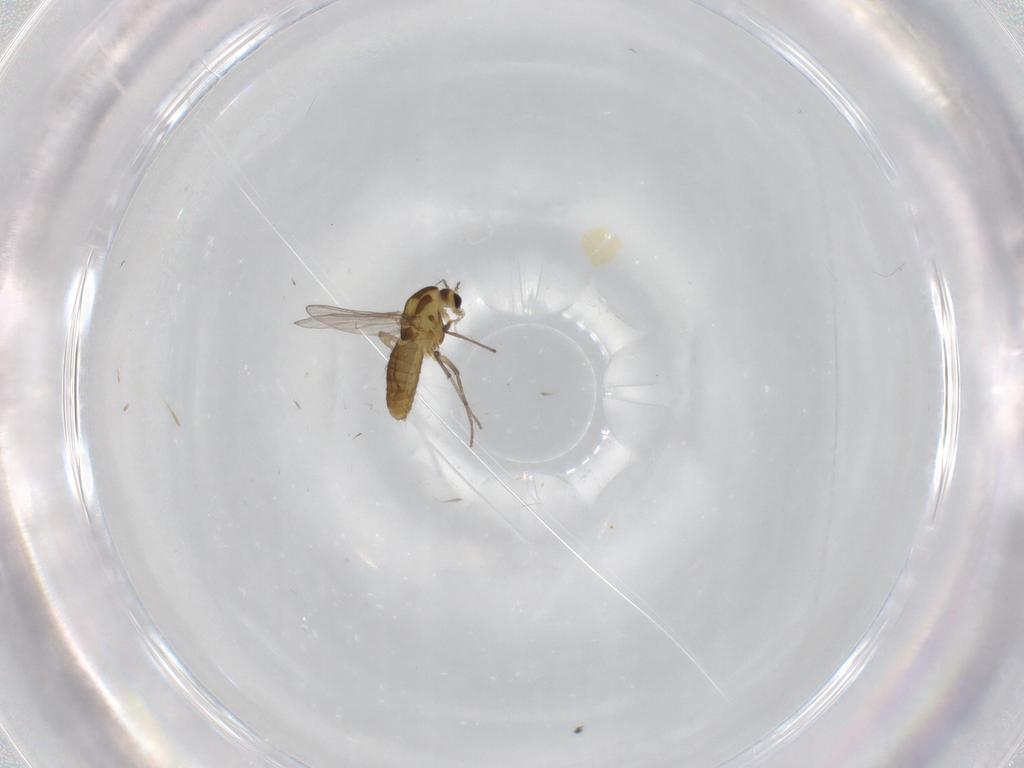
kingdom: Animalia
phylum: Arthropoda
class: Insecta
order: Diptera
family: Chironomidae
